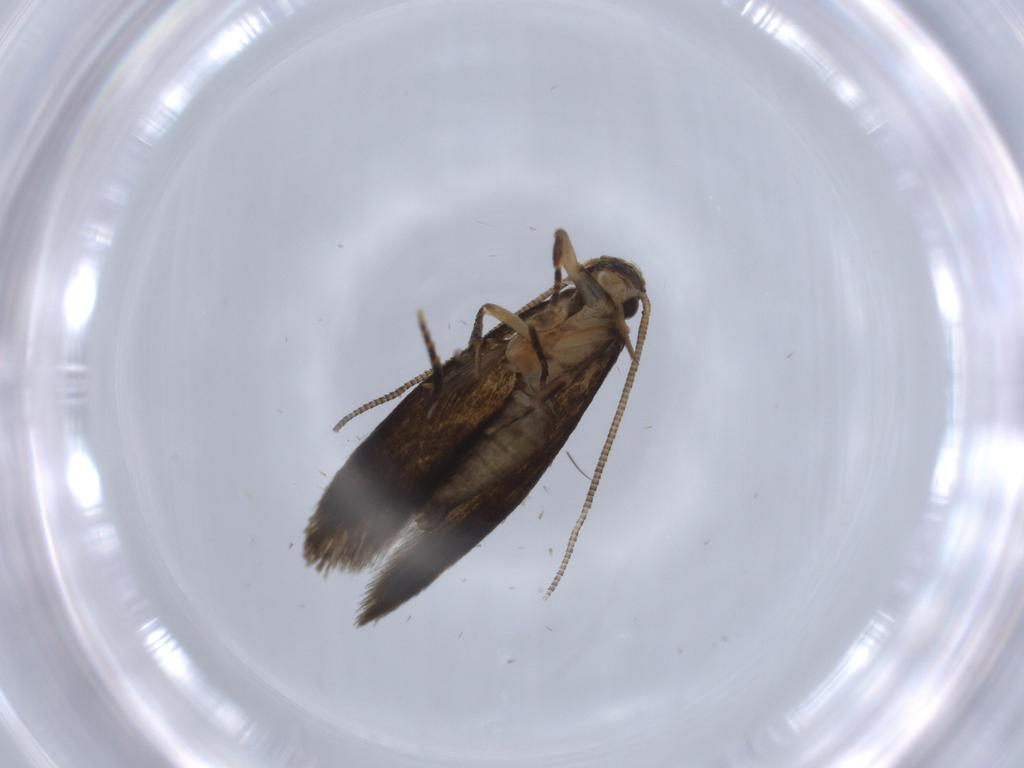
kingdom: Animalia
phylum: Arthropoda
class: Insecta
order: Lepidoptera
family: Tineidae
